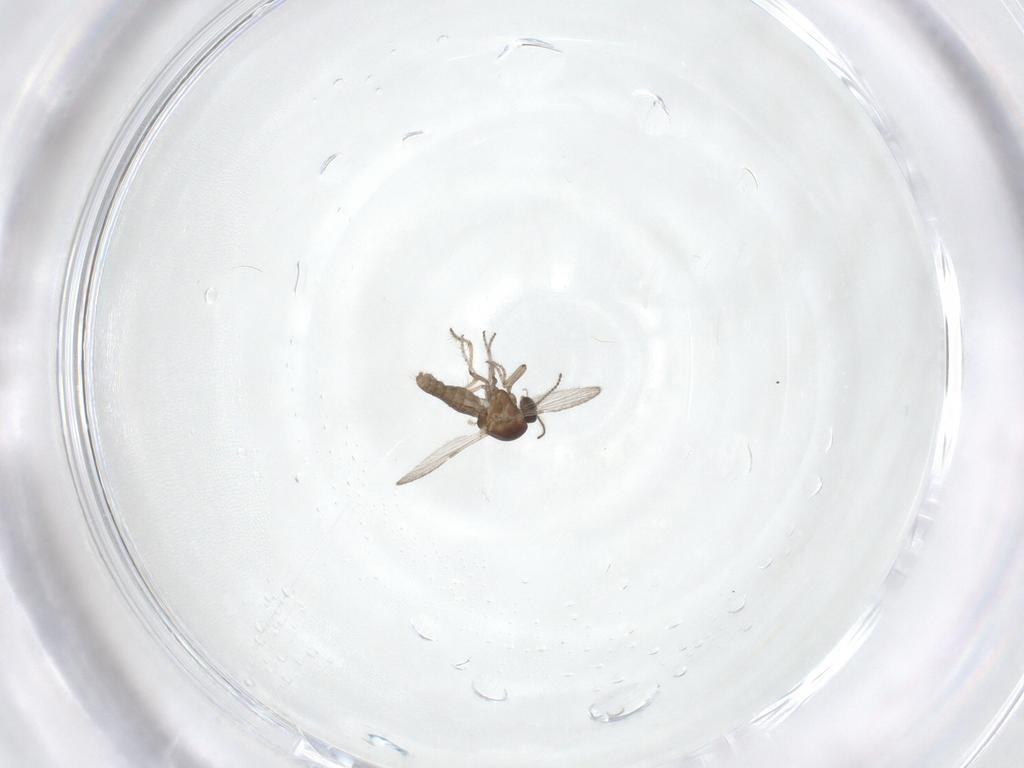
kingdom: Animalia
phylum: Arthropoda
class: Insecta
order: Diptera
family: Ceratopogonidae
